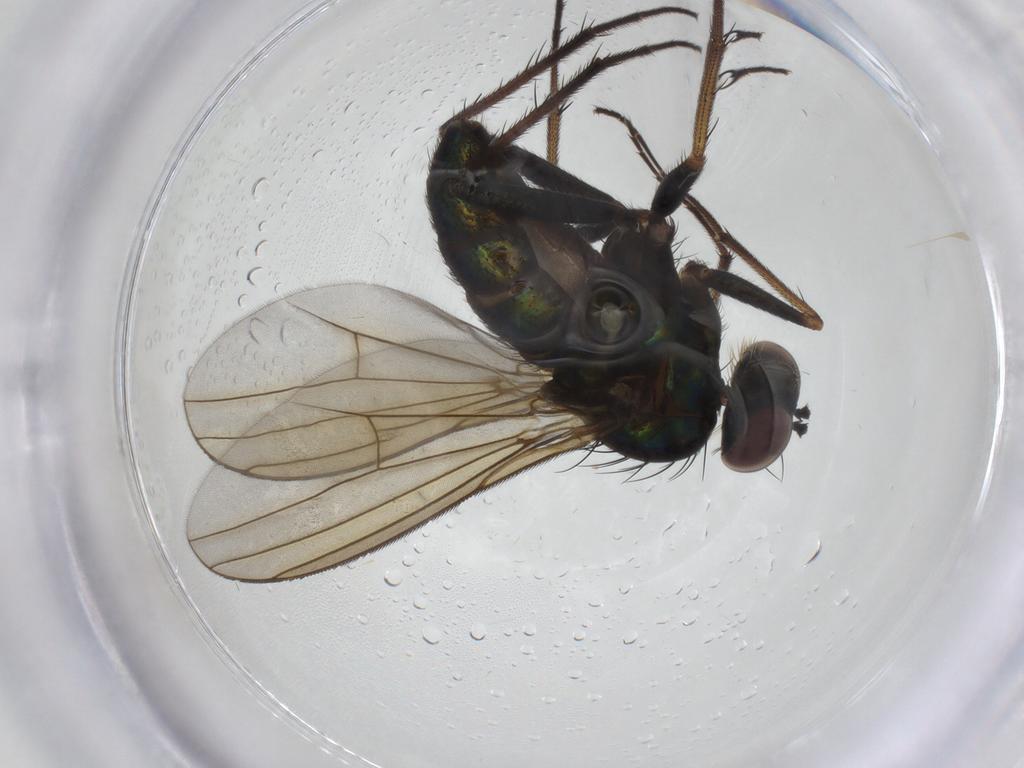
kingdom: Animalia
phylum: Arthropoda
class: Insecta
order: Diptera
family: Dolichopodidae
